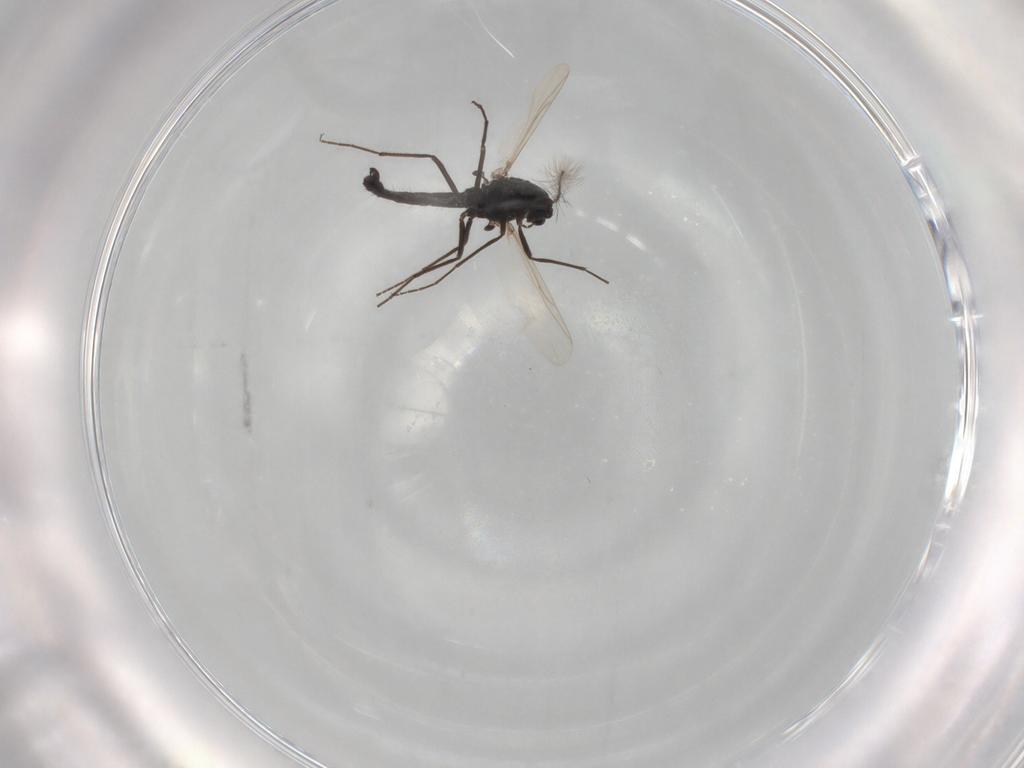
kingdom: Animalia
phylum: Arthropoda
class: Insecta
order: Diptera
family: Chironomidae
